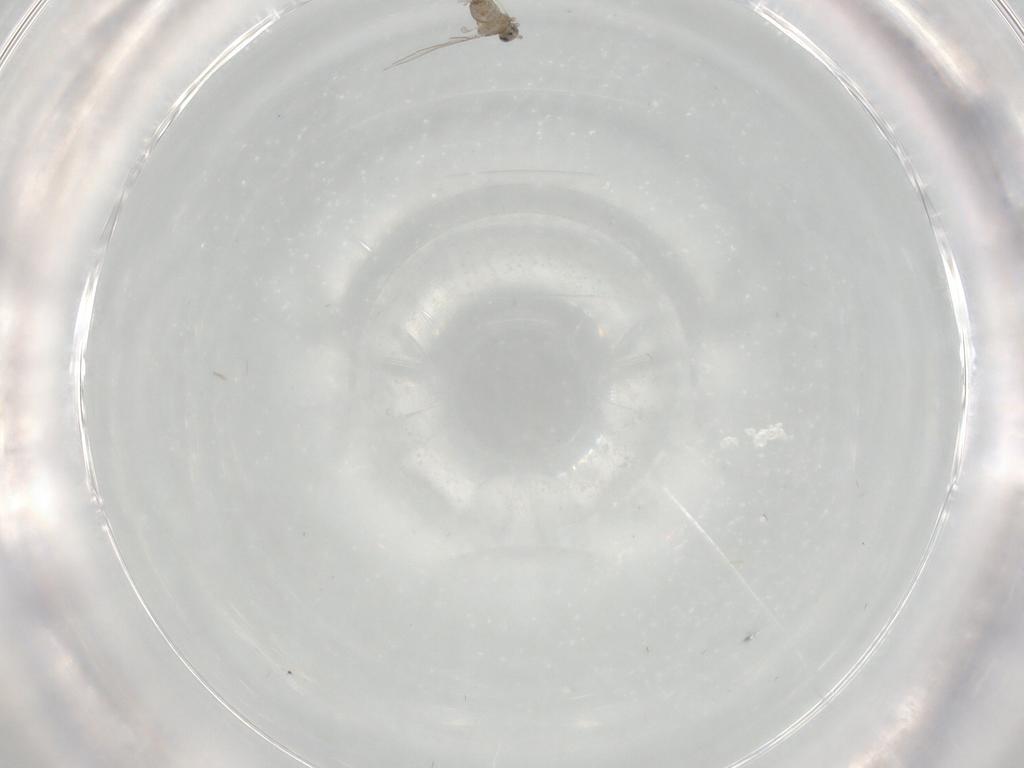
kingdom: Animalia
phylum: Arthropoda
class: Insecta
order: Diptera
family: Cecidomyiidae
